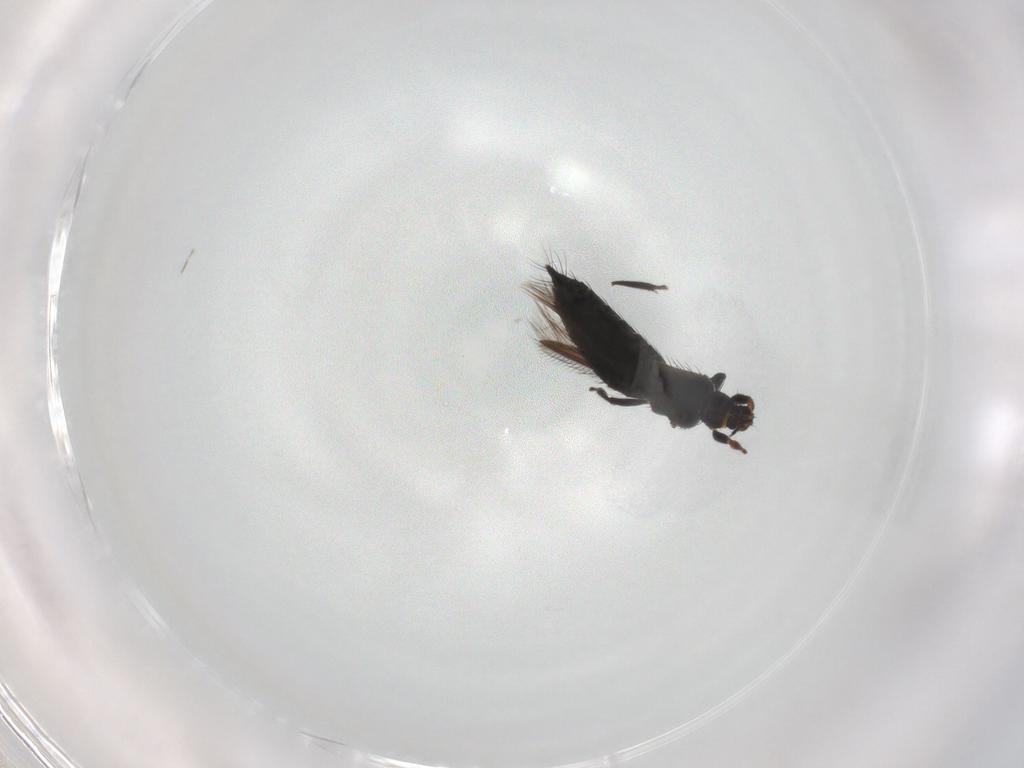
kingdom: Animalia
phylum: Arthropoda
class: Insecta
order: Thysanoptera
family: Thripidae
